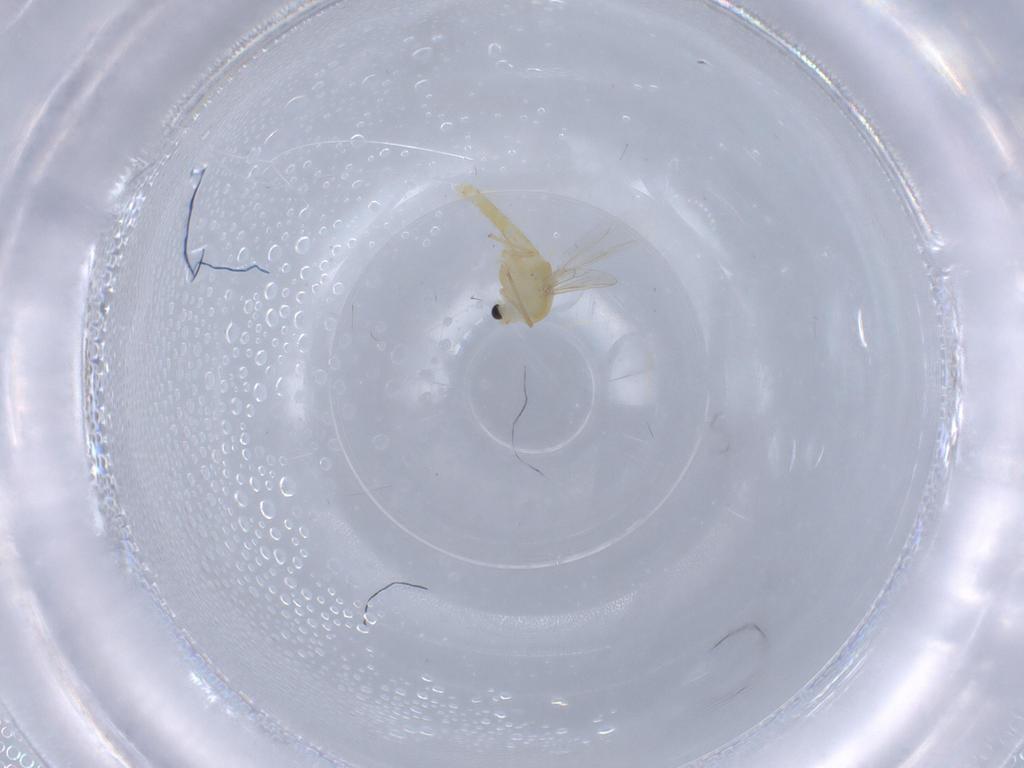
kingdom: Animalia
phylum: Arthropoda
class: Insecta
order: Diptera
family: Chironomidae
